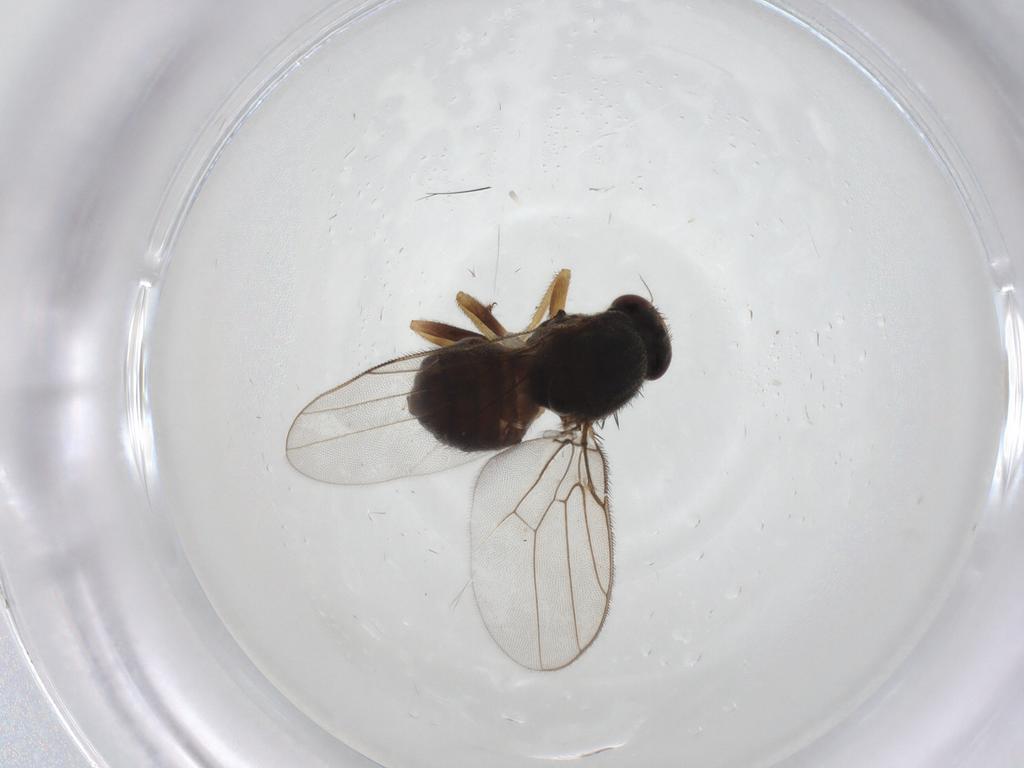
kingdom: Animalia
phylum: Arthropoda
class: Insecta
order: Diptera
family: Chloropidae
